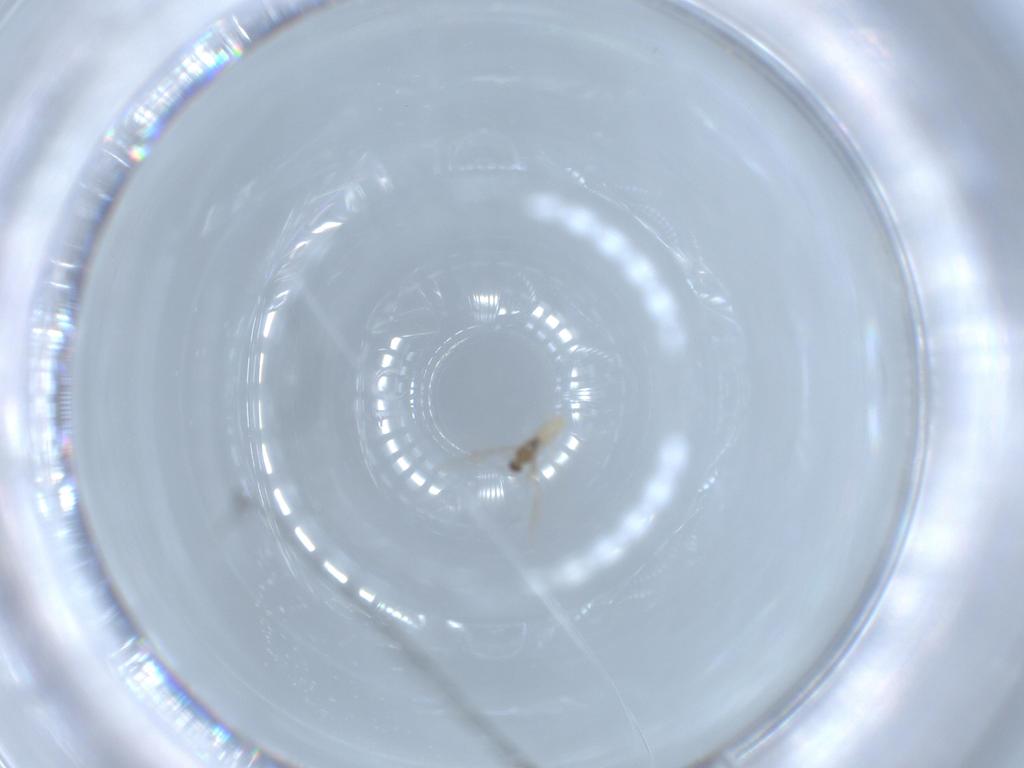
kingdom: Animalia
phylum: Arthropoda
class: Insecta
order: Diptera
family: Cecidomyiidae
